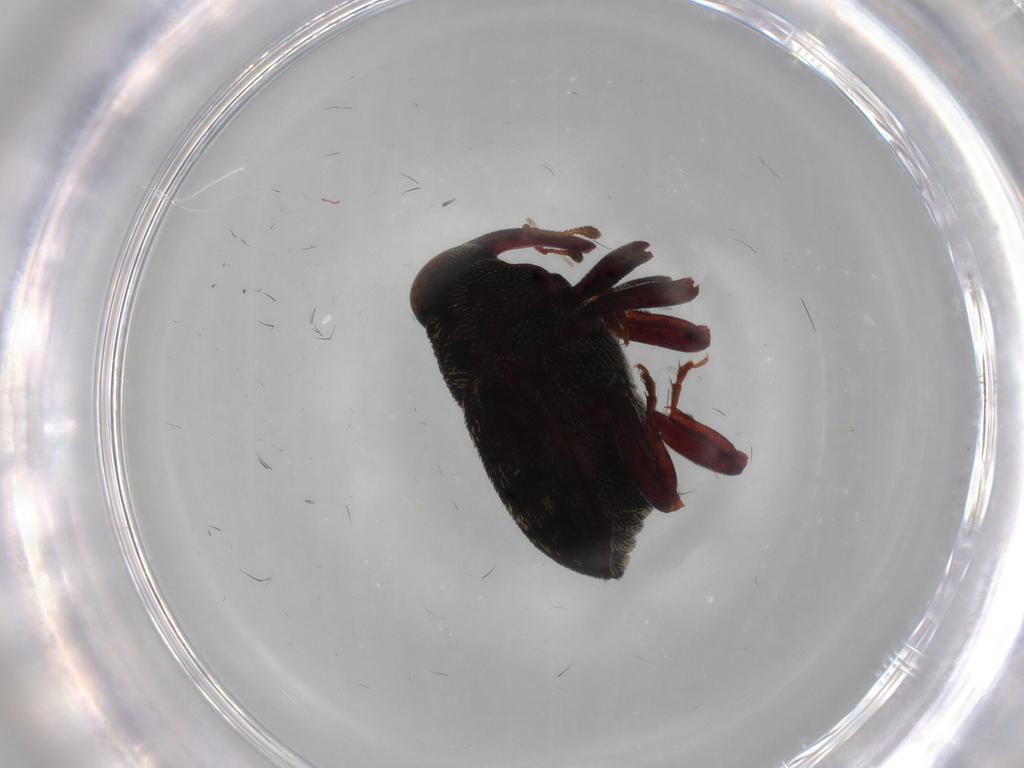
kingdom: Animalia
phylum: Arthropoda
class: Insecta
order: Coleoptera
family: Curculionidae
